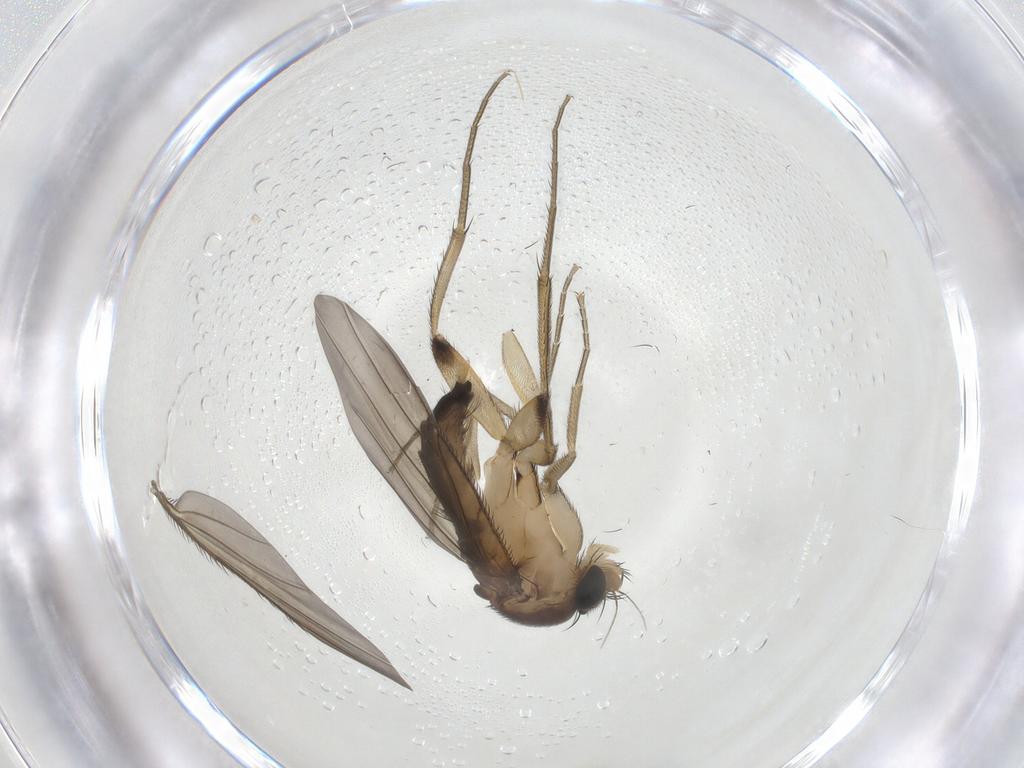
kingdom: Animalia
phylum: Arthropoda
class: Insecta
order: Diptera
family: Phoridae
